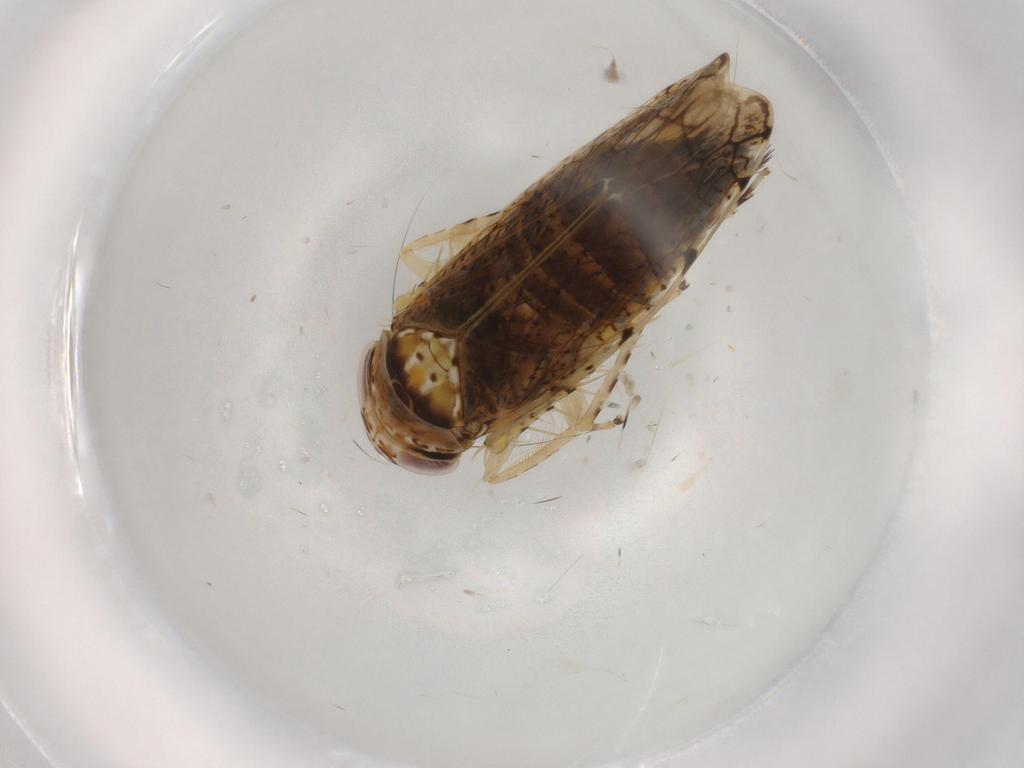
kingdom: Animalia
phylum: Arthropoda
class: Insecta
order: Hemiptera
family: Cicadellidae
